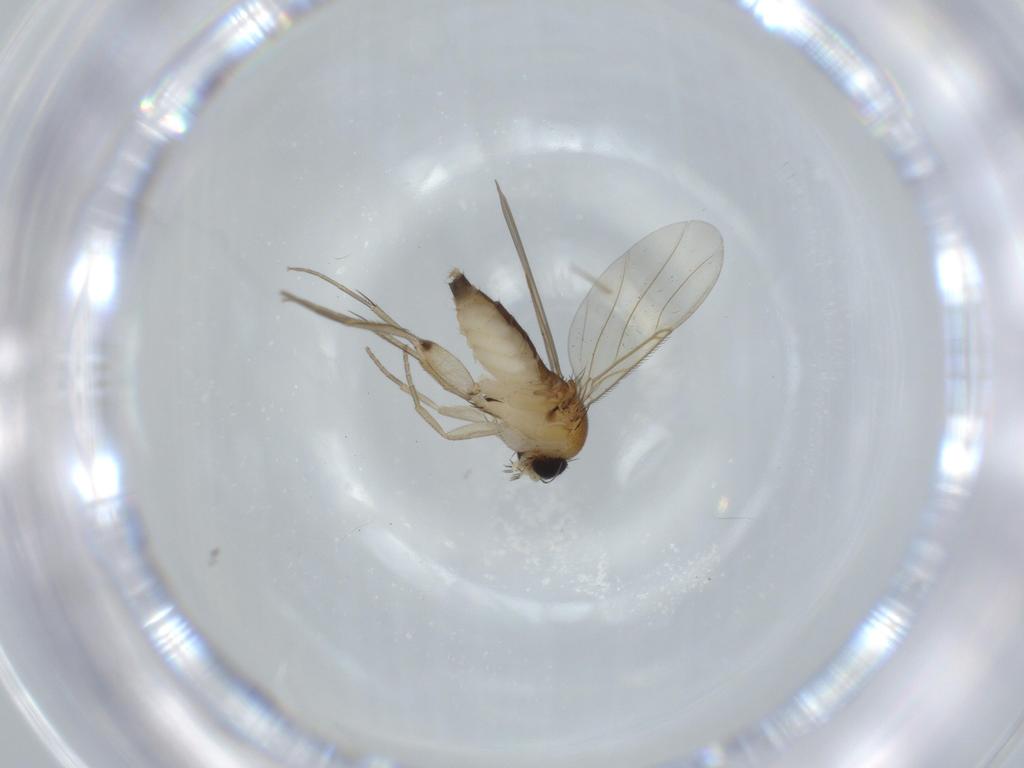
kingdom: Animalia
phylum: Arthropoda
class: Insecta
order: Diptera
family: Phoridae
